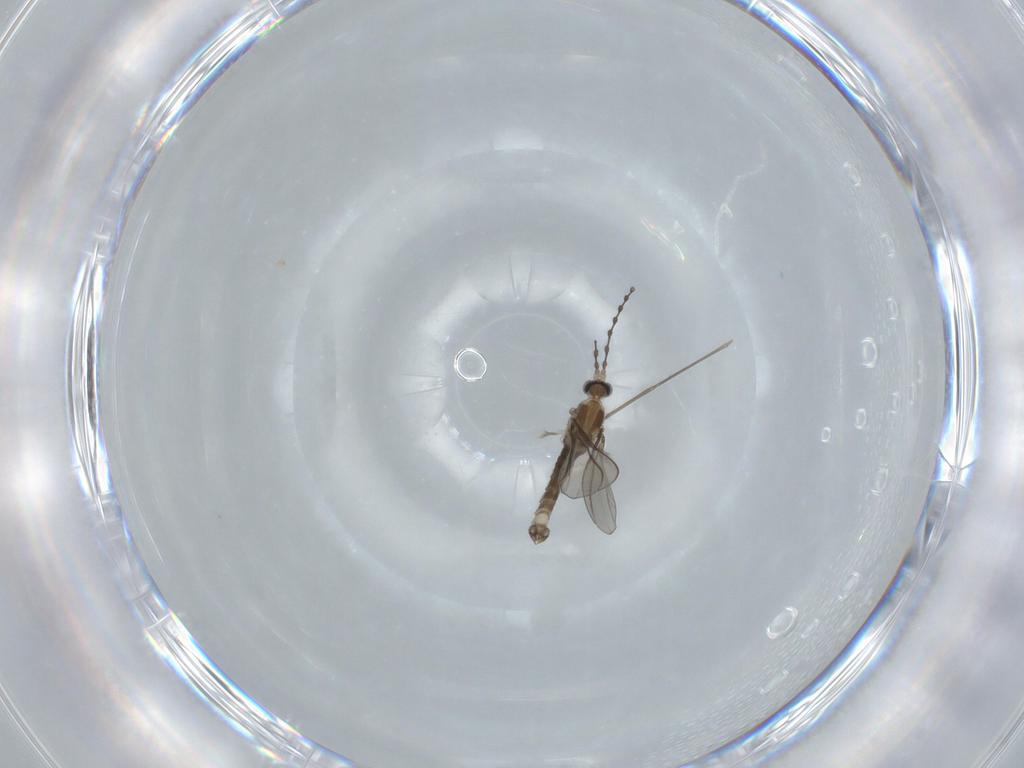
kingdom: Animalia
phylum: Arthropoda
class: Insecta
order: Diptera
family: Cecidomyiidae
